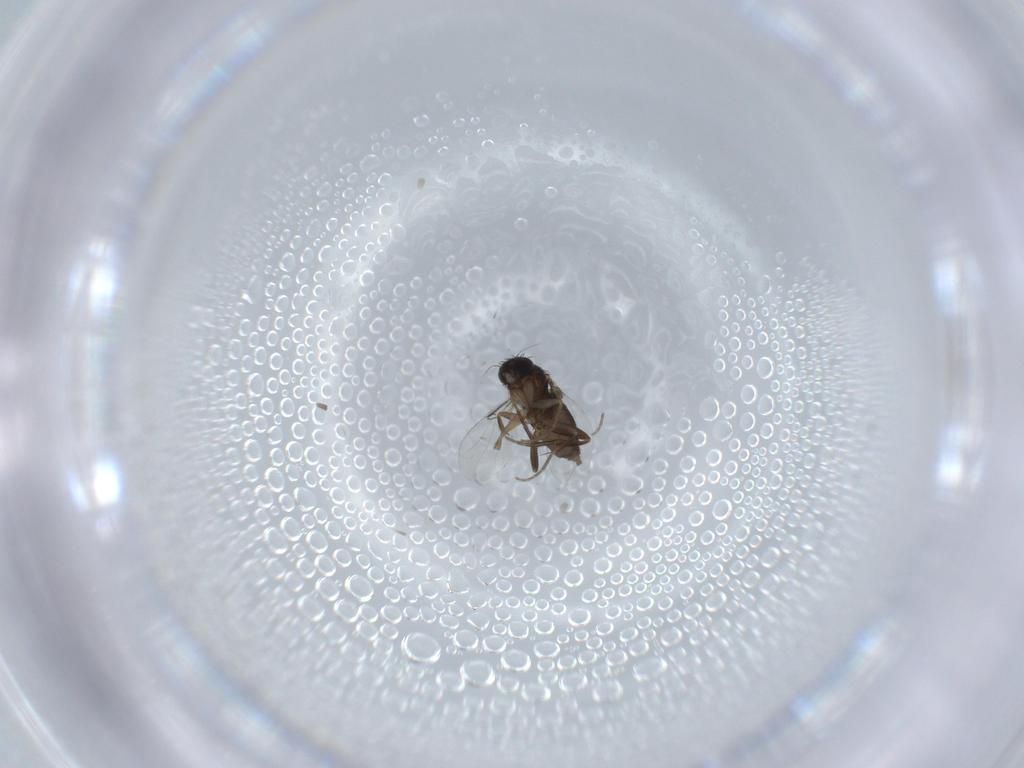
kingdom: Animalia
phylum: Arthropoda
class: Insecta
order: Diptera
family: Phoridae
